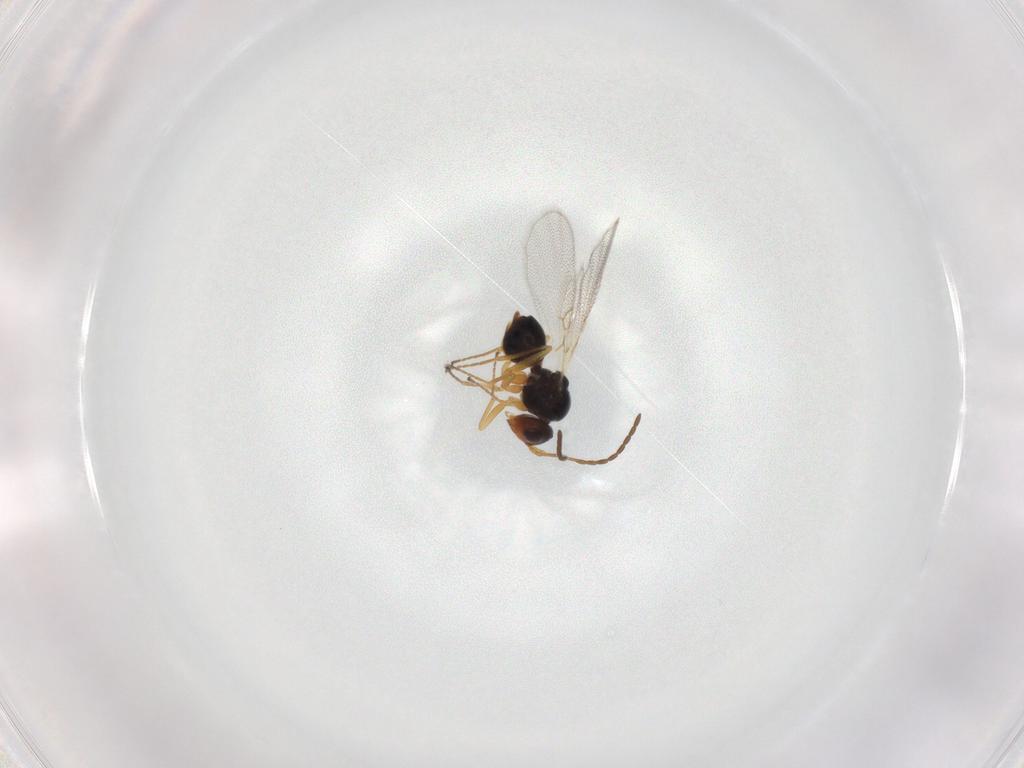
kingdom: Animalia
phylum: Arthropoda
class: Insecta
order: Hymenoptera
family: Figitidae
